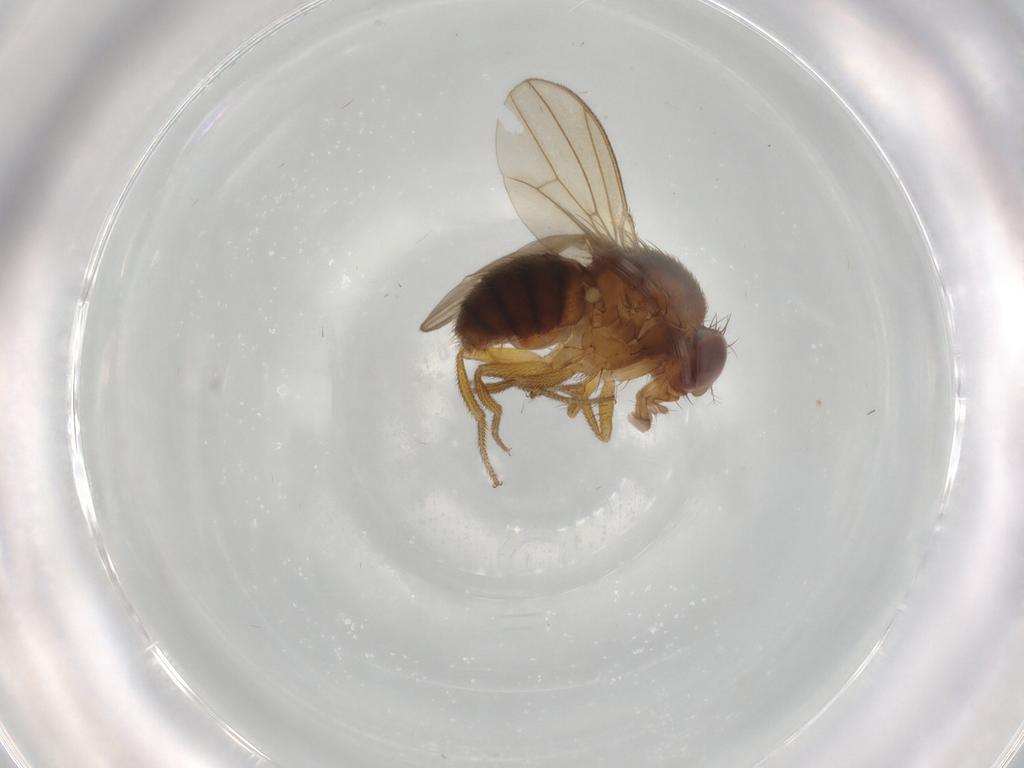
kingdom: Animalia
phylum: Arthropoda
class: Insecta
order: Diptera
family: Drosophilidae
